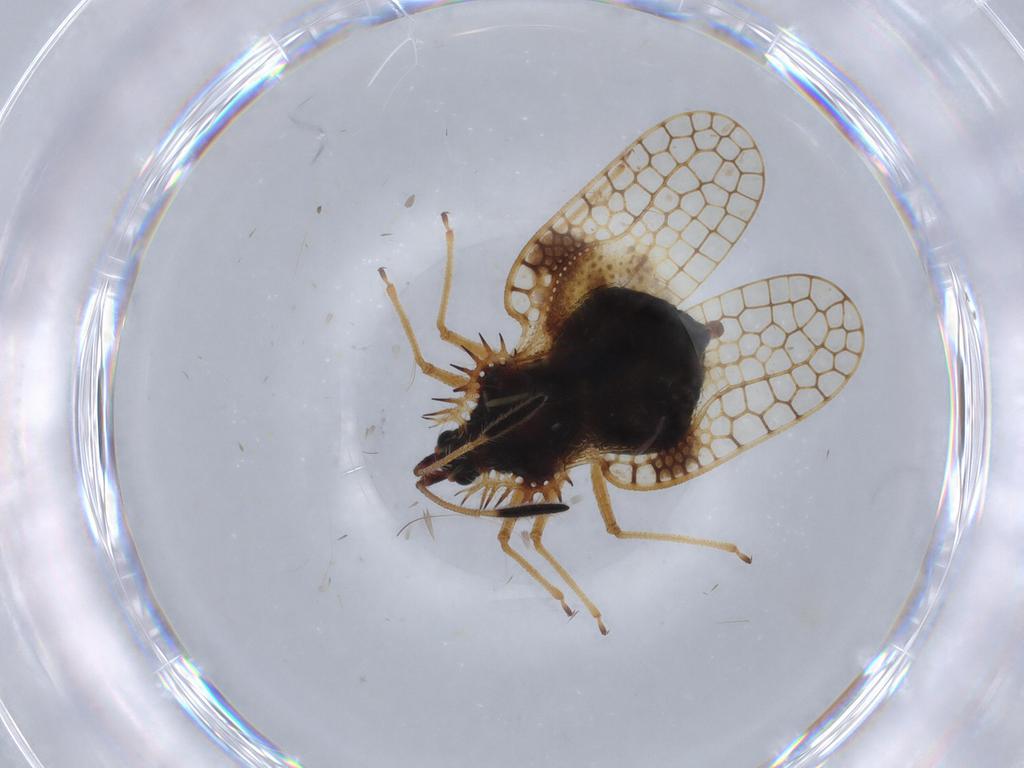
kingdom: Animalia
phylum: Arthropoda
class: Insecta
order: Hemiptera
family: Tingidae
